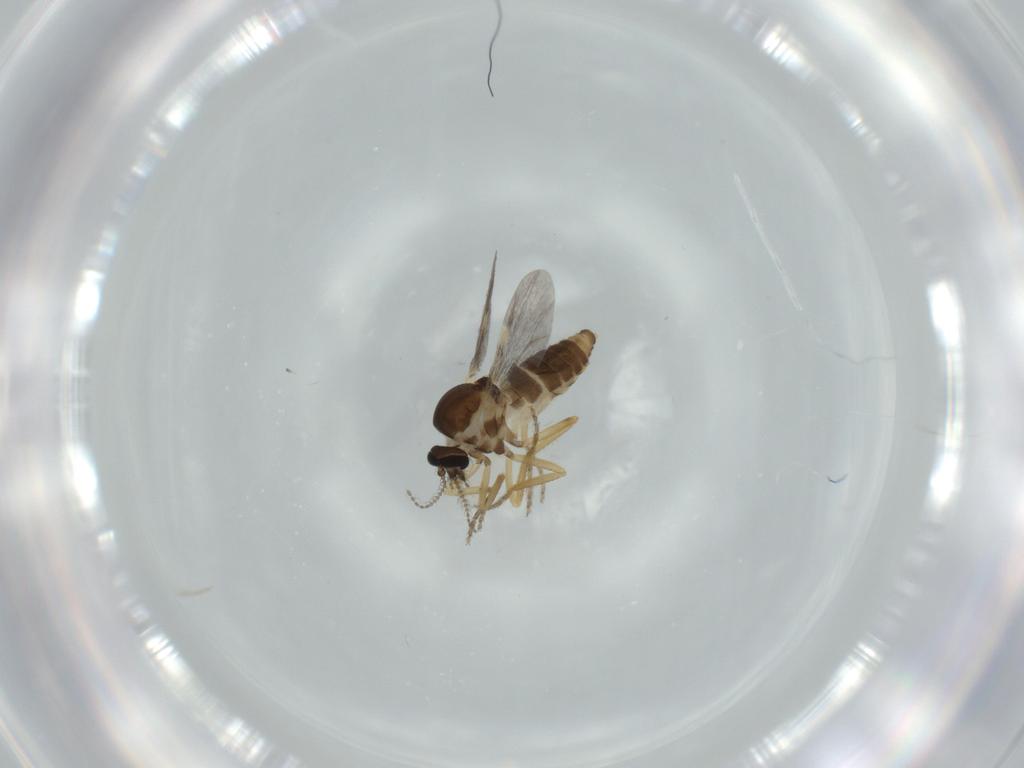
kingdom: Animalia
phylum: Arthropoda
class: Insecta
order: Diptera
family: Ceratopogonidae
